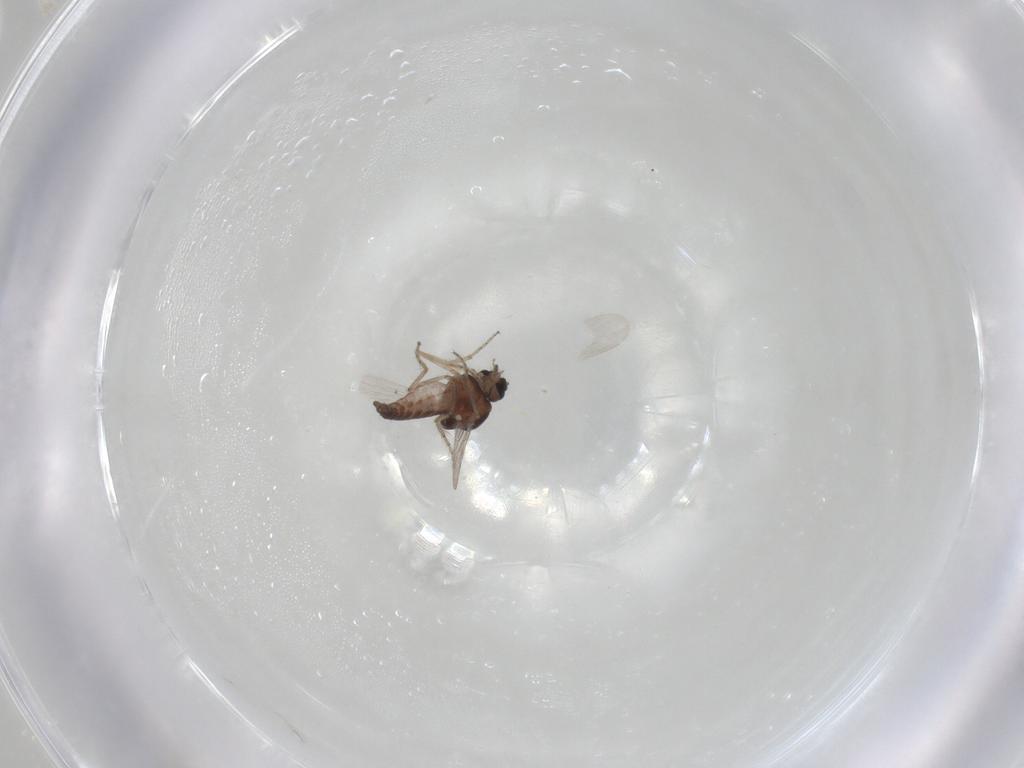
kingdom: Animalia
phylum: Arthropoda
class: Insecta
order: Diptera
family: Ceratopogonidae
